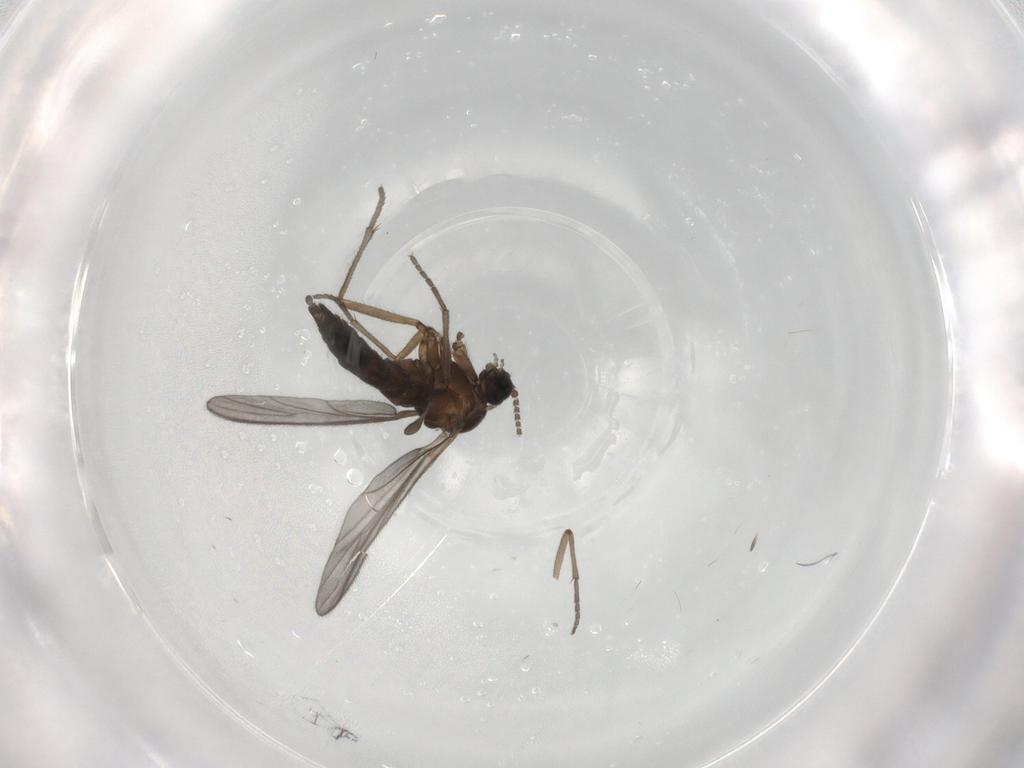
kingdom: Animalia
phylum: Arthropoda
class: Insecta
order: Diptera
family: Sciaridae
